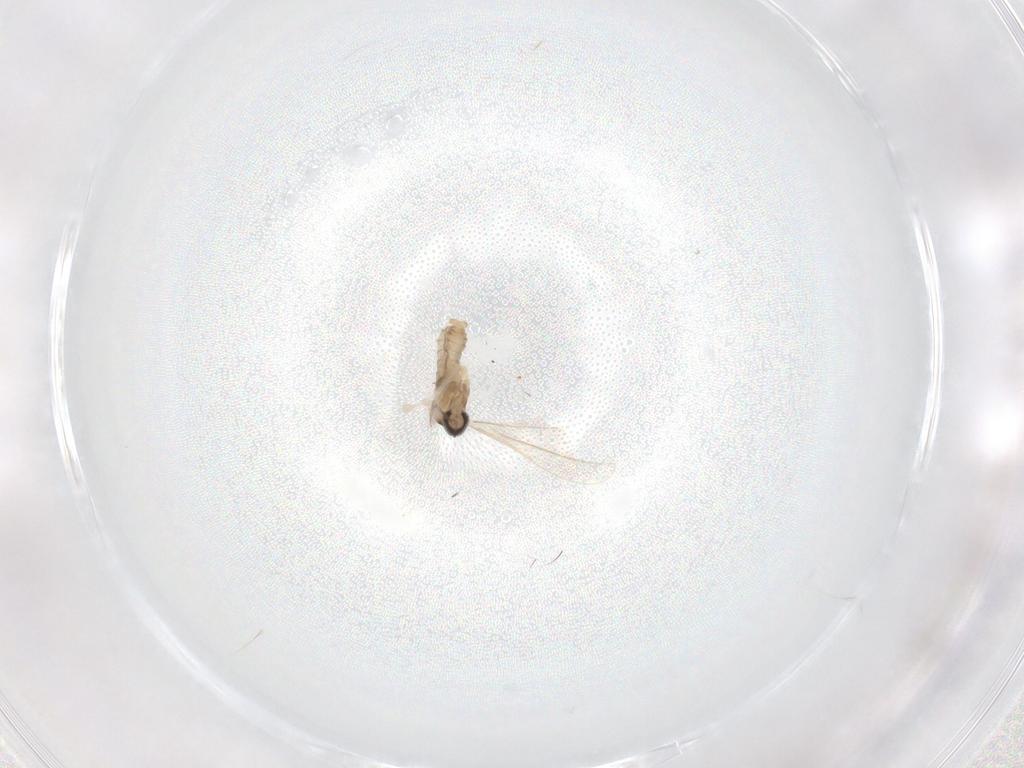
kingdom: Animalia
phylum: Arthropoda
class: Insecta
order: Diptera
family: Cecidomyiidae
